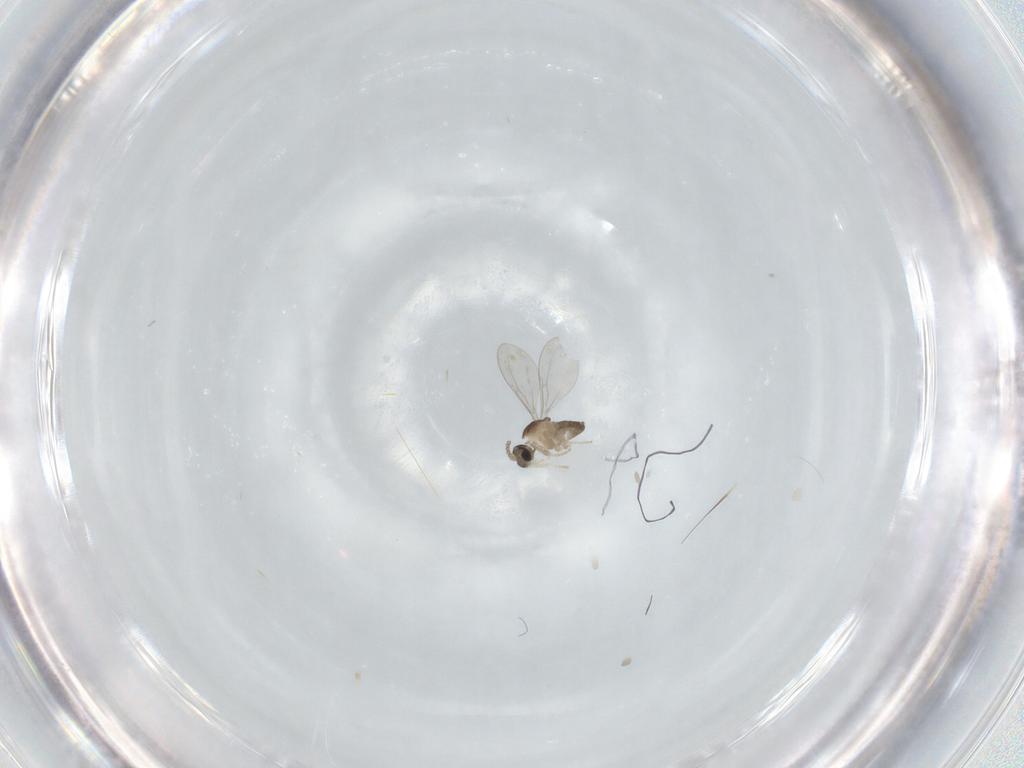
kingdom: Animalia
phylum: Arthropoda
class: Insecta
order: Diptera
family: Cecidomyiidae
